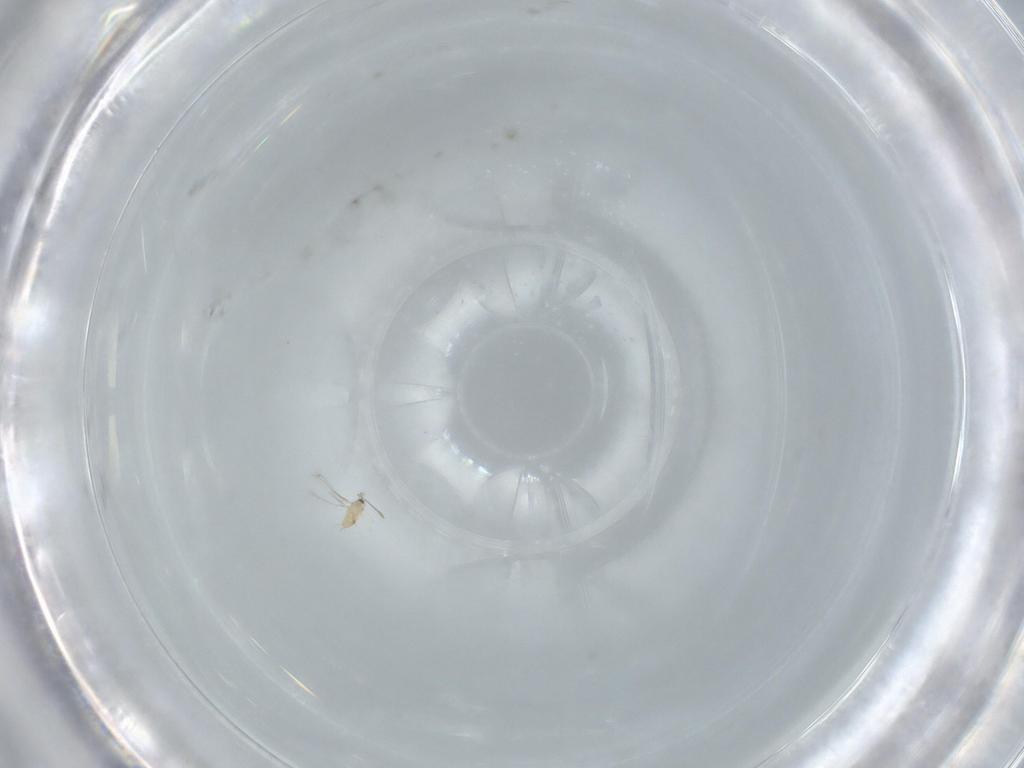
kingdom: Animalia
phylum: Arthropoda
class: Insecta
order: Hymenoptera
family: Mymaridae
